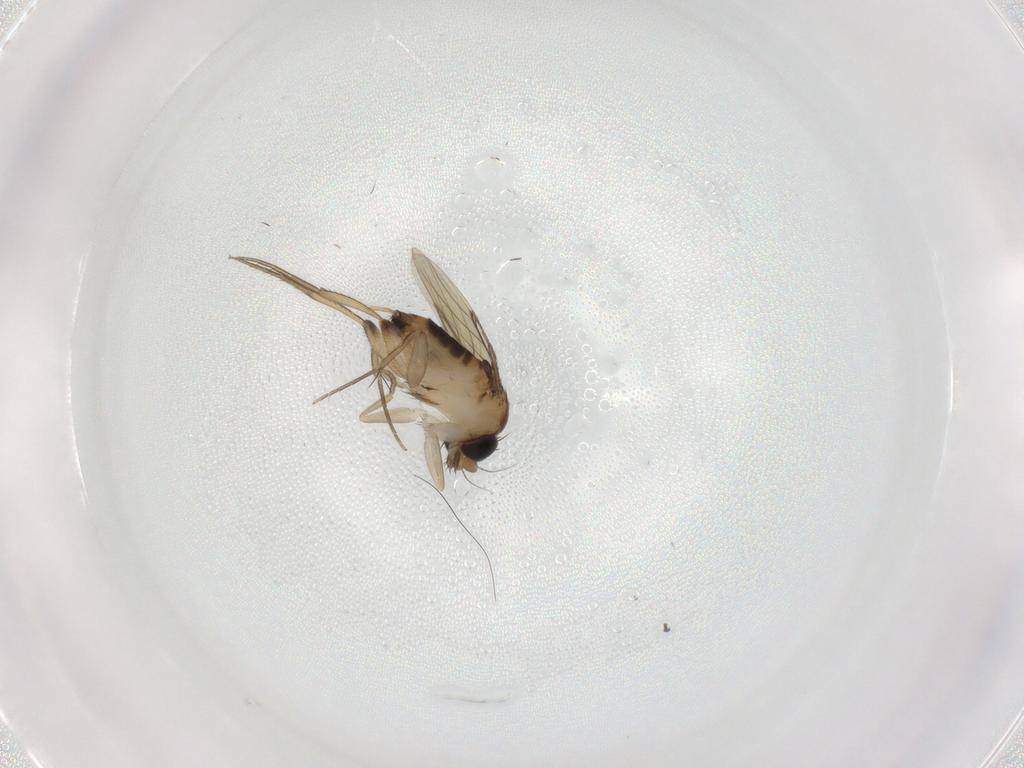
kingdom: Animalia
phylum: Arthropoda
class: Insecta
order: Diptera
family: Phoridae
